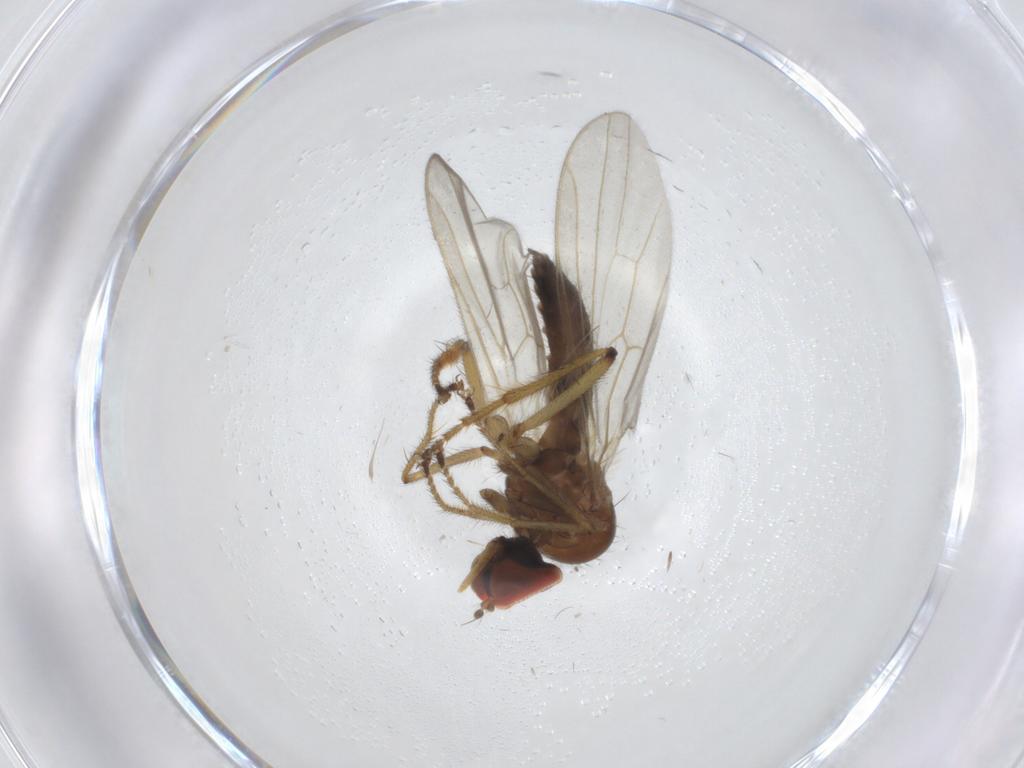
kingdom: Animalia
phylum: Arthropoda
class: Insecta
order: Diptera
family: Hybotidae
